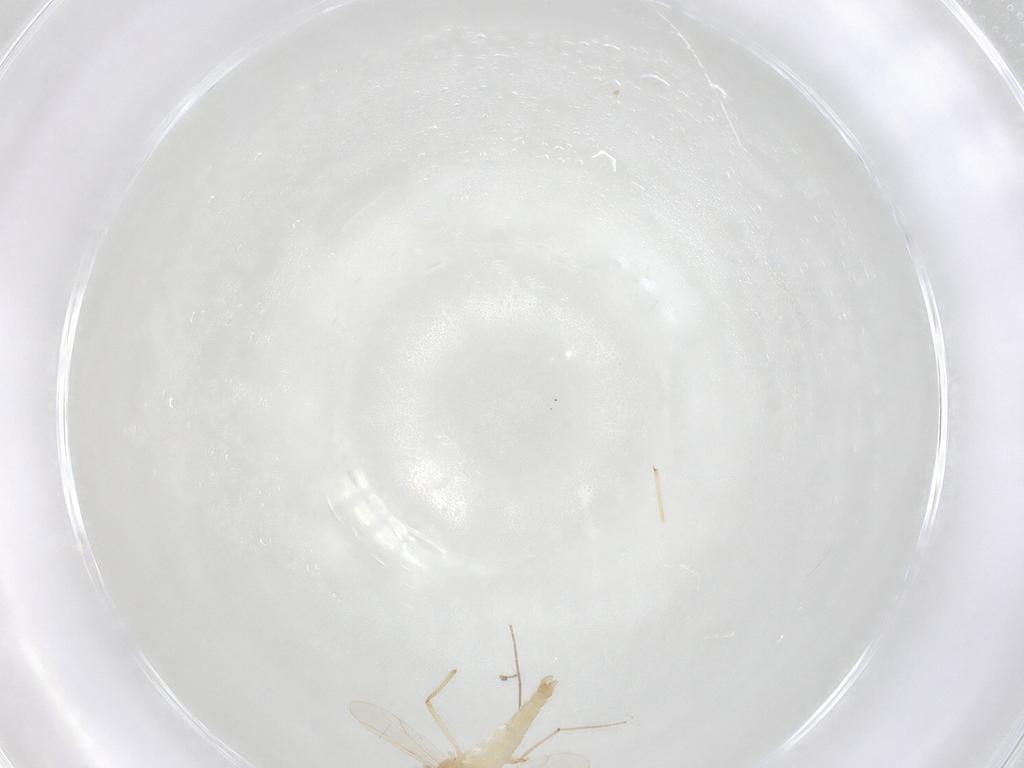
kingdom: Animalia
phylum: Arthropoda
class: Insecta
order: Diptera
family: Chironomidae
